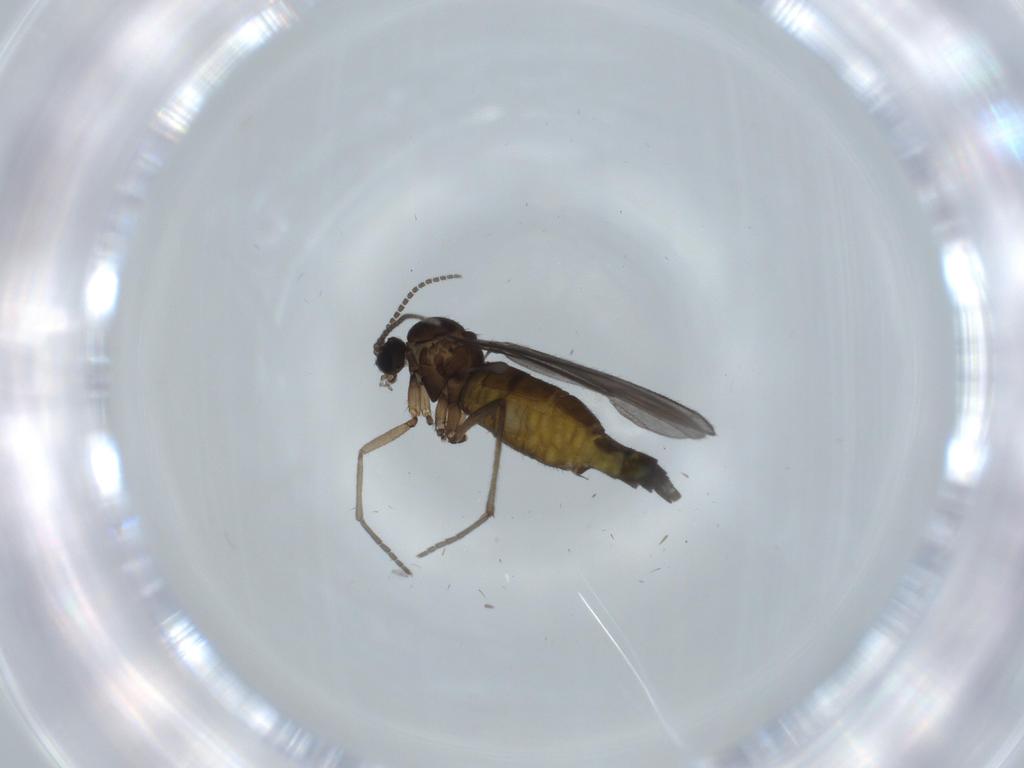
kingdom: Animalia
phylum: Arthropoda
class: Insecta
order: Diptera
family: Sciaridae
